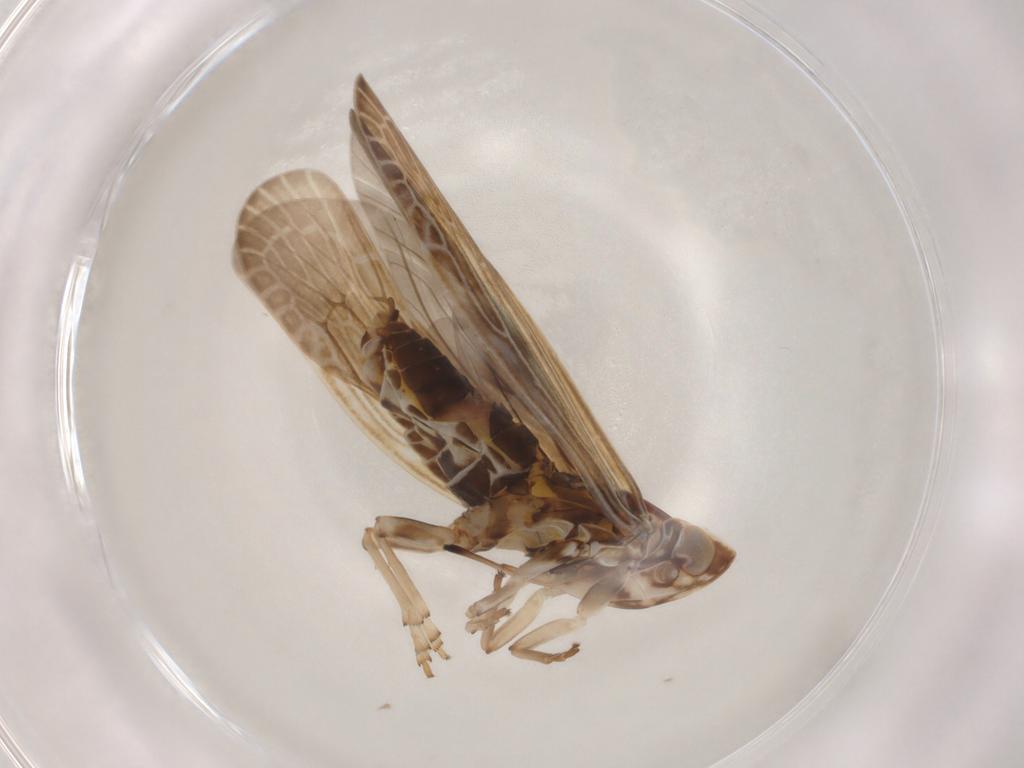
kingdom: Animalia
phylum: Arthropoda
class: Insecta
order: Hemiptera
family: Achilidae
